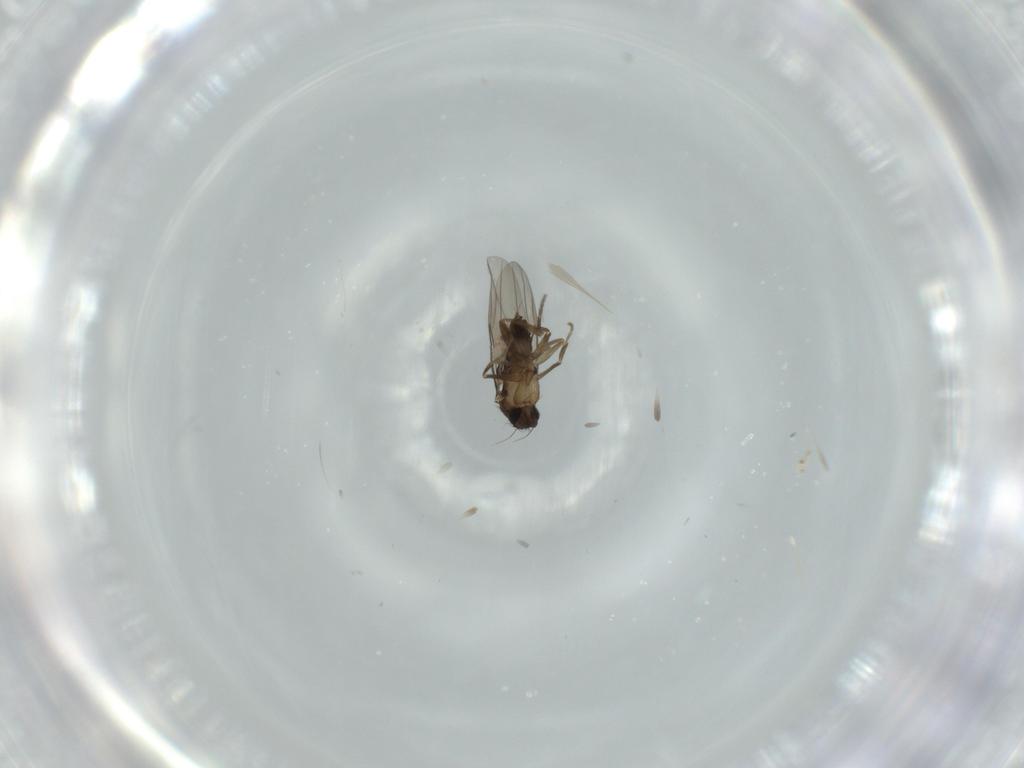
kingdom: Animalia
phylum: Arthropoda
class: Insecta
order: Diptera
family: Phoridae
